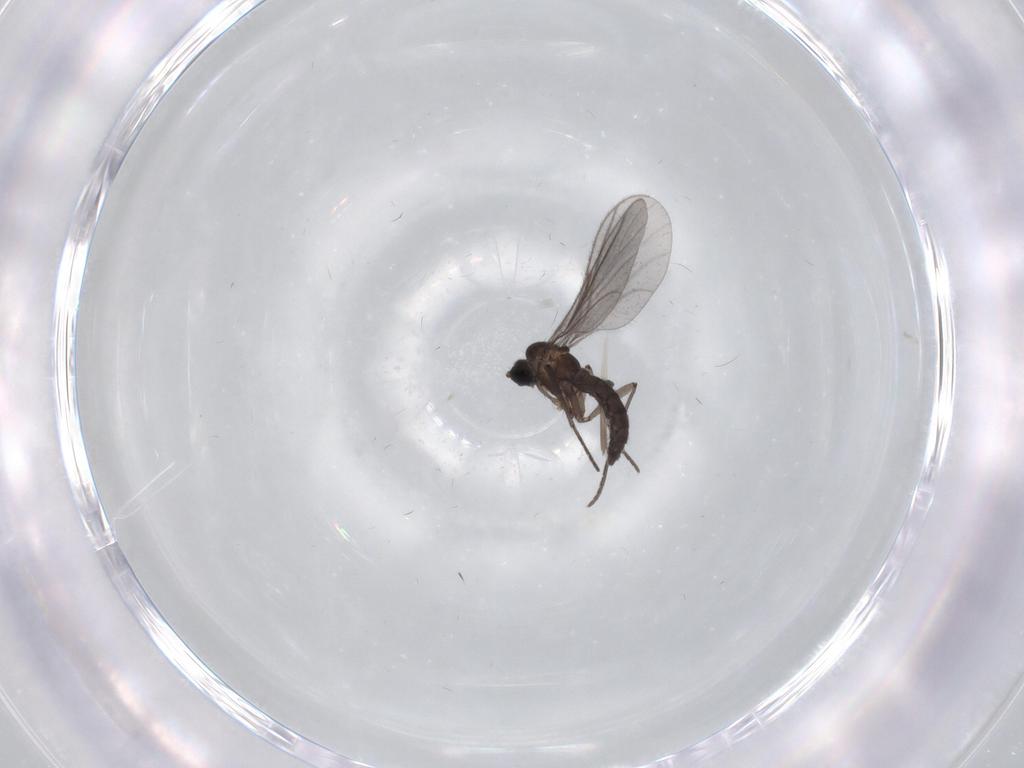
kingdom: Animalia
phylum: Arthropoda
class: Insecta
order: Diptera
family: Sciaridae
